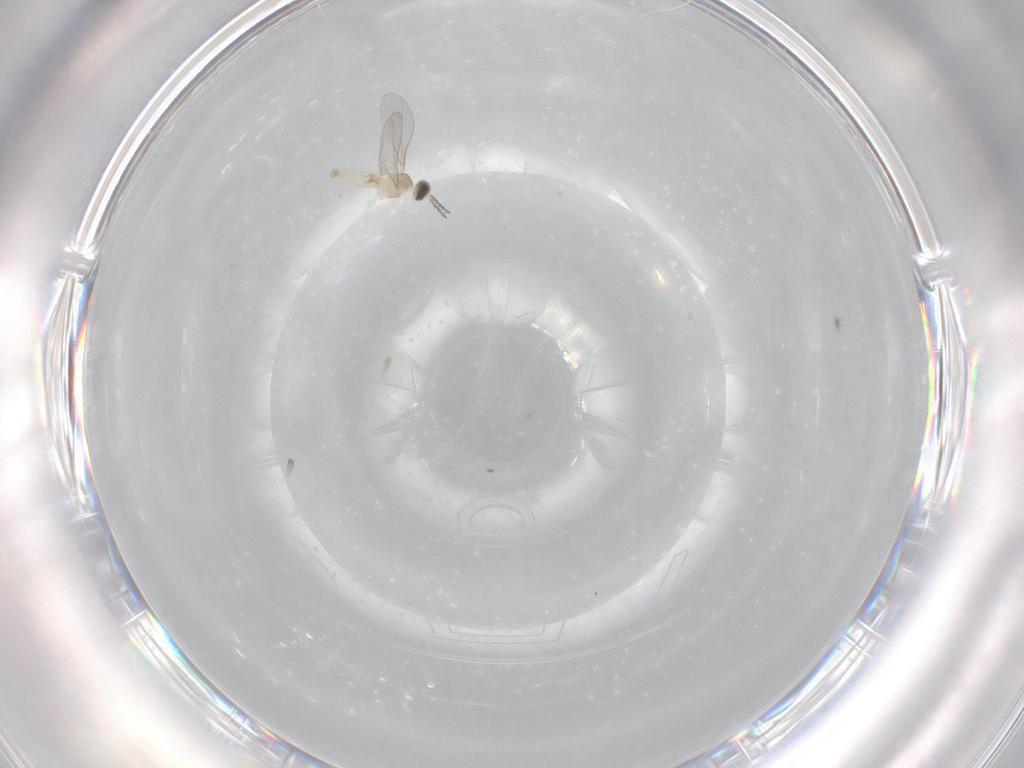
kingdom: Animalia
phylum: Arthropoda
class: Insecta
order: Diptera
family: Cecidomyiidae
